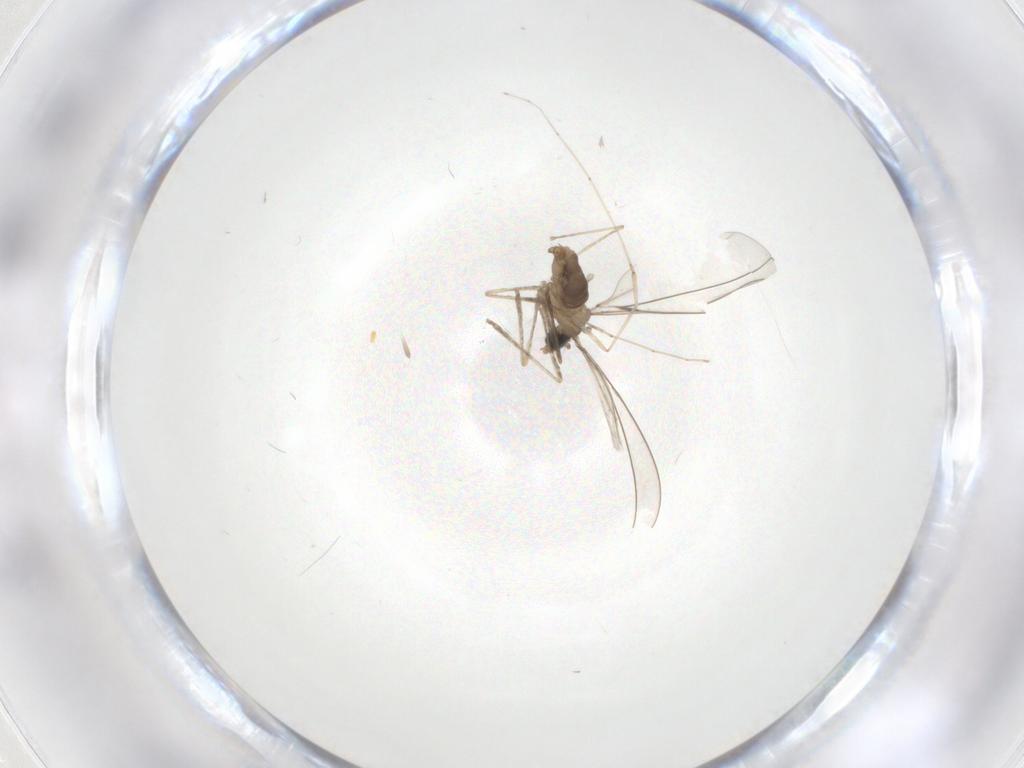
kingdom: Animalia
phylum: Arthropoda
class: Insecta
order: Diptera
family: Cecidomyiidae
